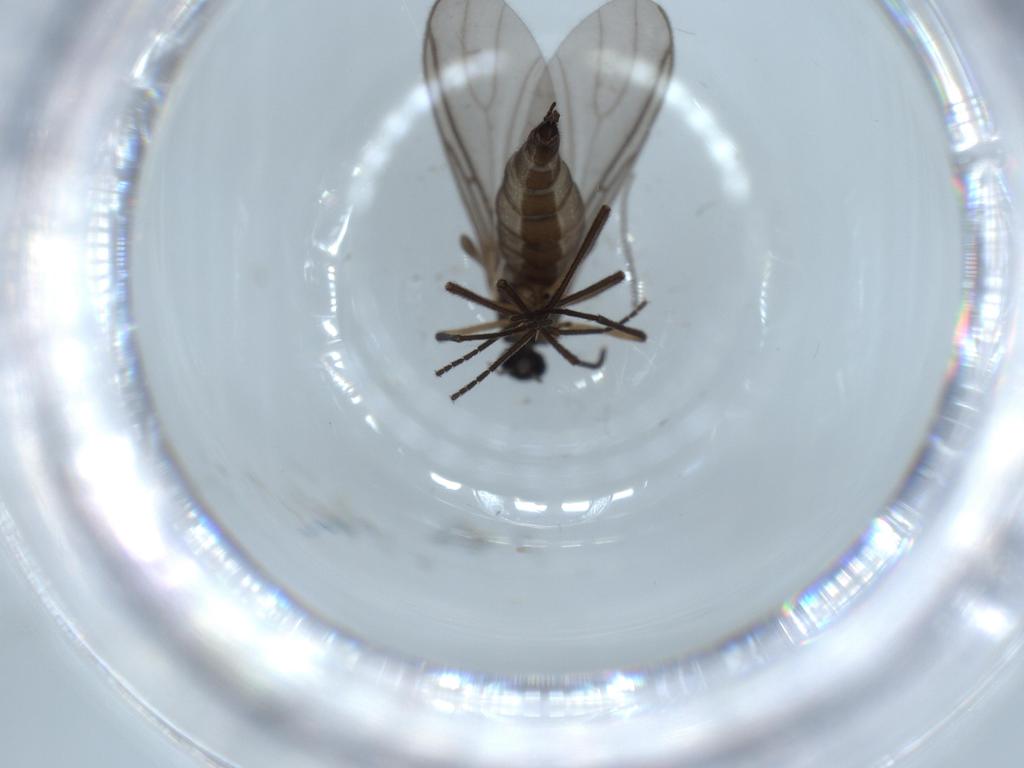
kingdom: Animalia
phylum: Arthropoda
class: Insecta
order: Diptera
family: Sciaridae
